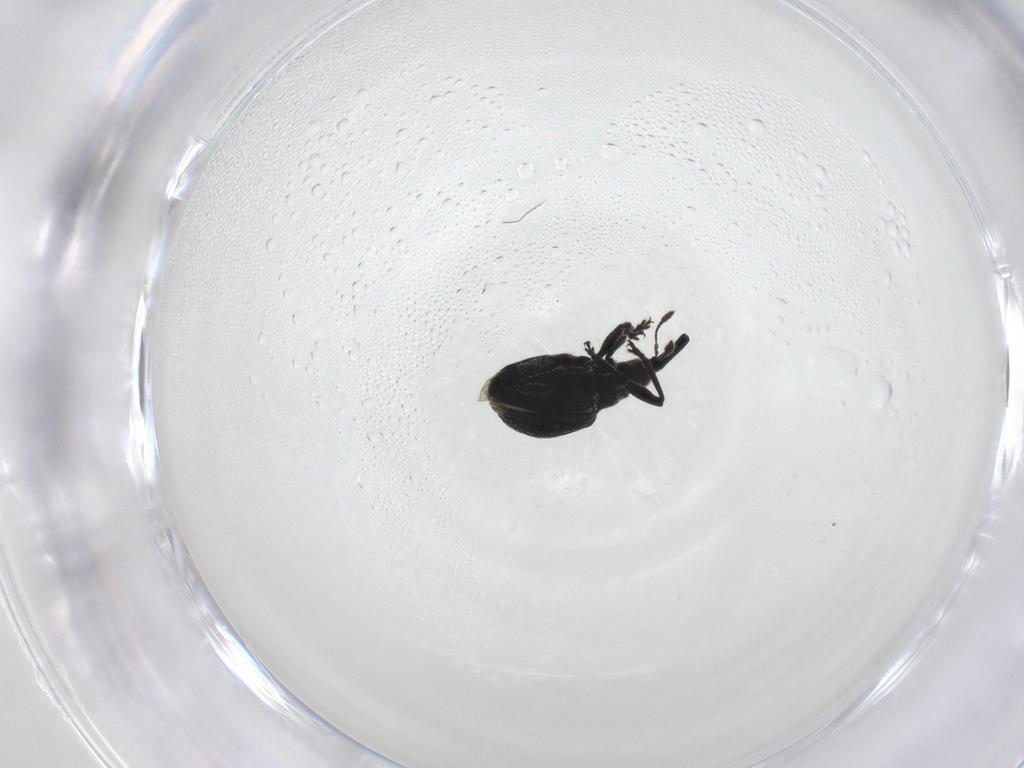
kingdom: Animalia
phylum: Arthropoda
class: Insecta
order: Coleoptera
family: Brentidae
